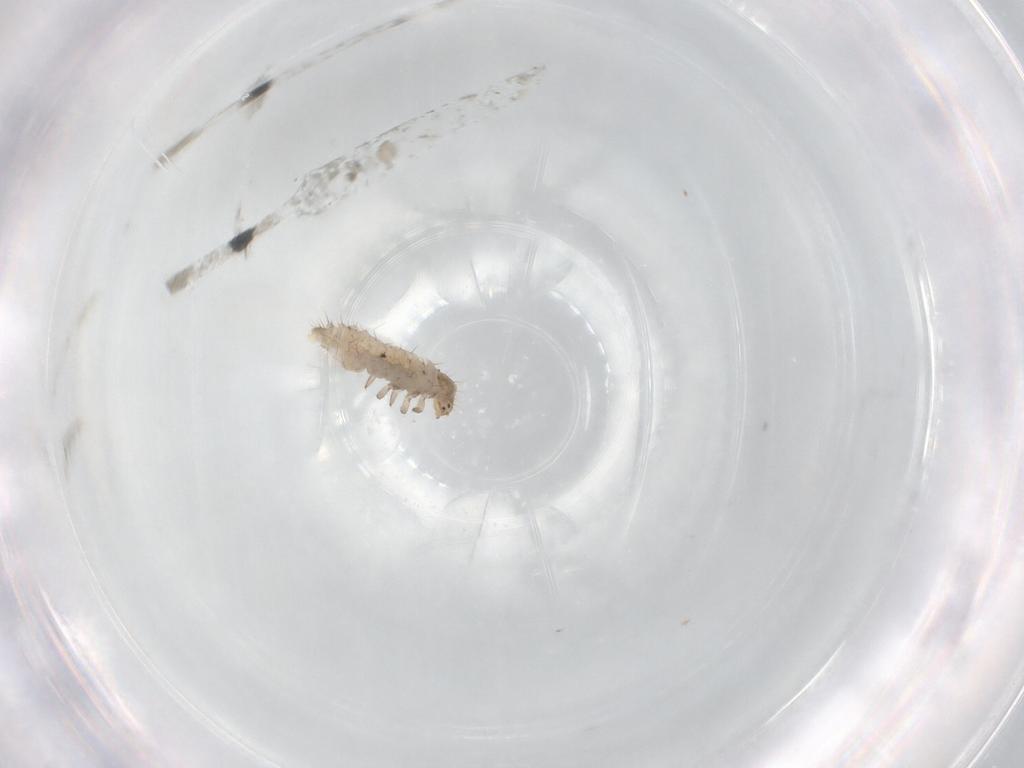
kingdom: Animalia
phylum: Arthropoda
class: Insecta
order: Coleoptera
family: Coccinellidae
